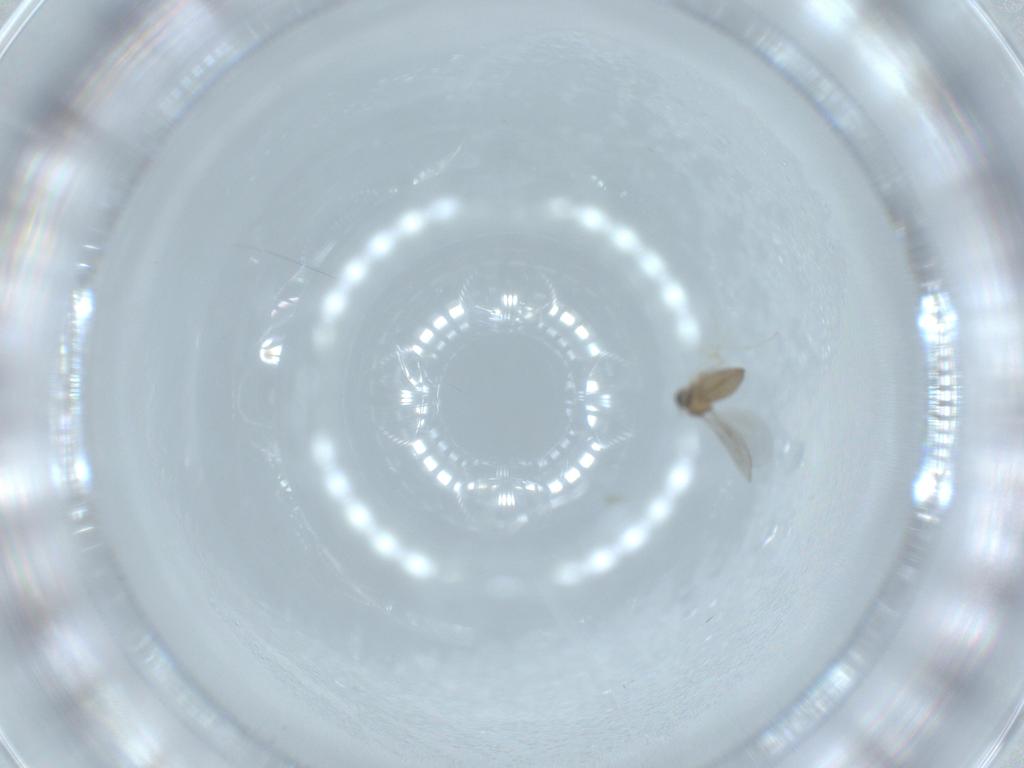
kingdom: Animalia
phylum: Arthropoda
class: Insecta
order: Diptera
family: Cecidomyiidae
